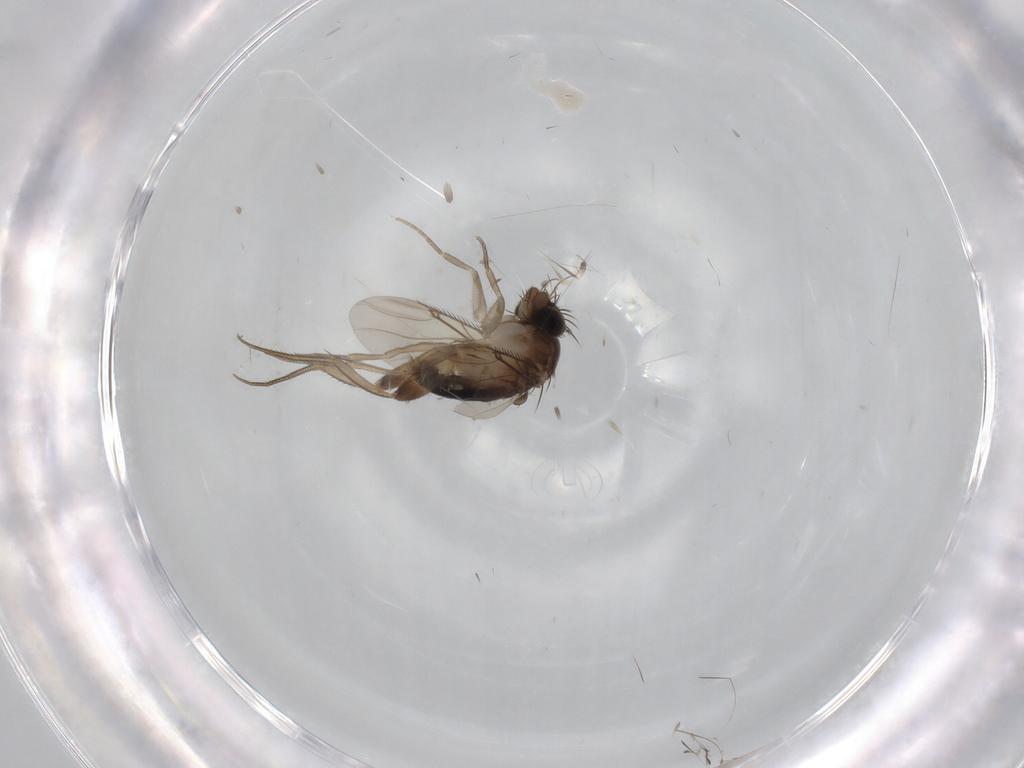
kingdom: Animalia
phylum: Arthropoda
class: Insecta
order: Diptera
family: Phoridae
